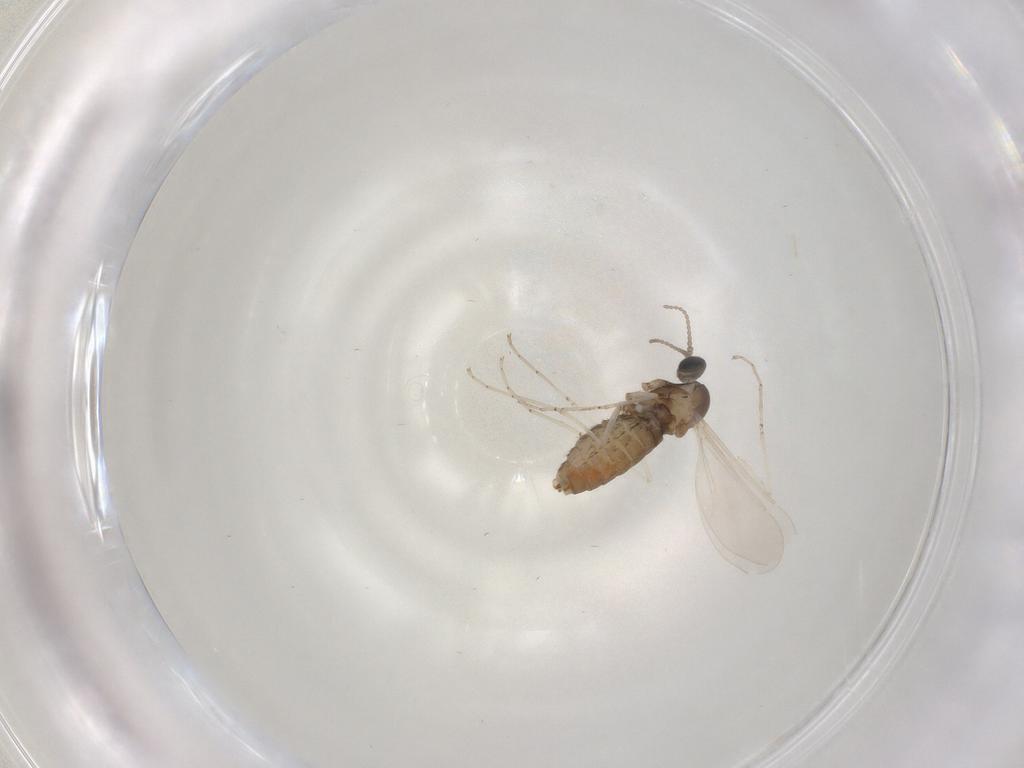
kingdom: Animalia
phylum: Arthropoda
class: Insecta
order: Diptera
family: Cecidomyiidae
